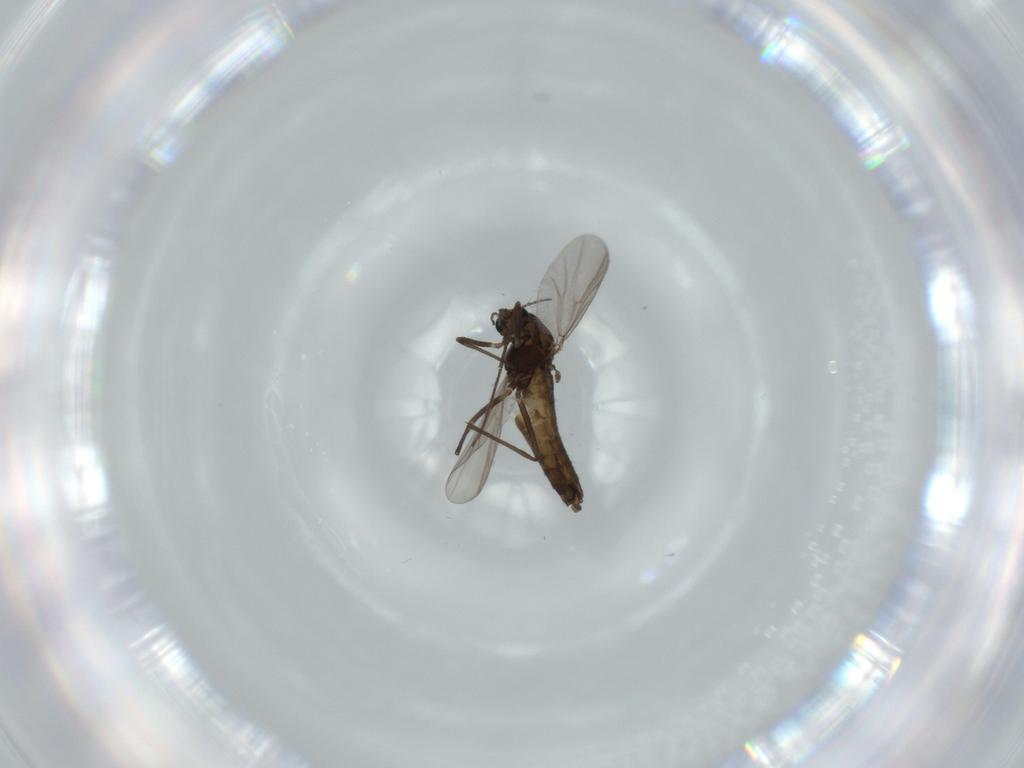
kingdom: Animalia
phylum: Arthropoda
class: Insecta
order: Diptera
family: Chironomidae
